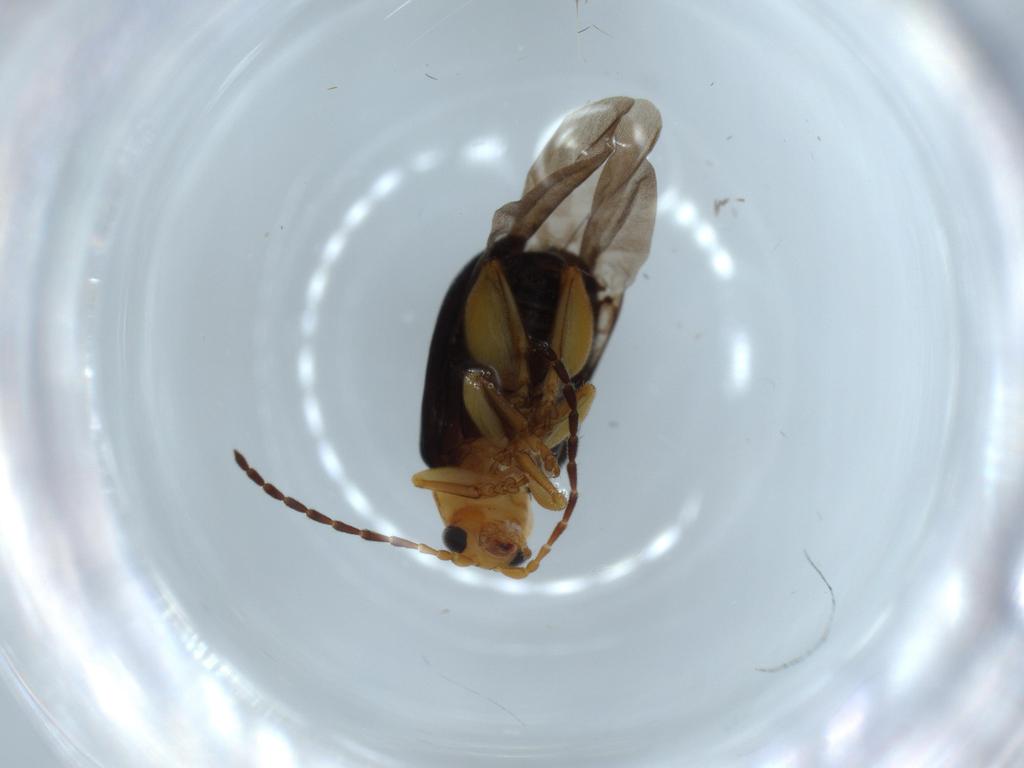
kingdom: Animalia
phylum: Arthropoda
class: Insecta
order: Coleoptera
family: Chrysomelidae
